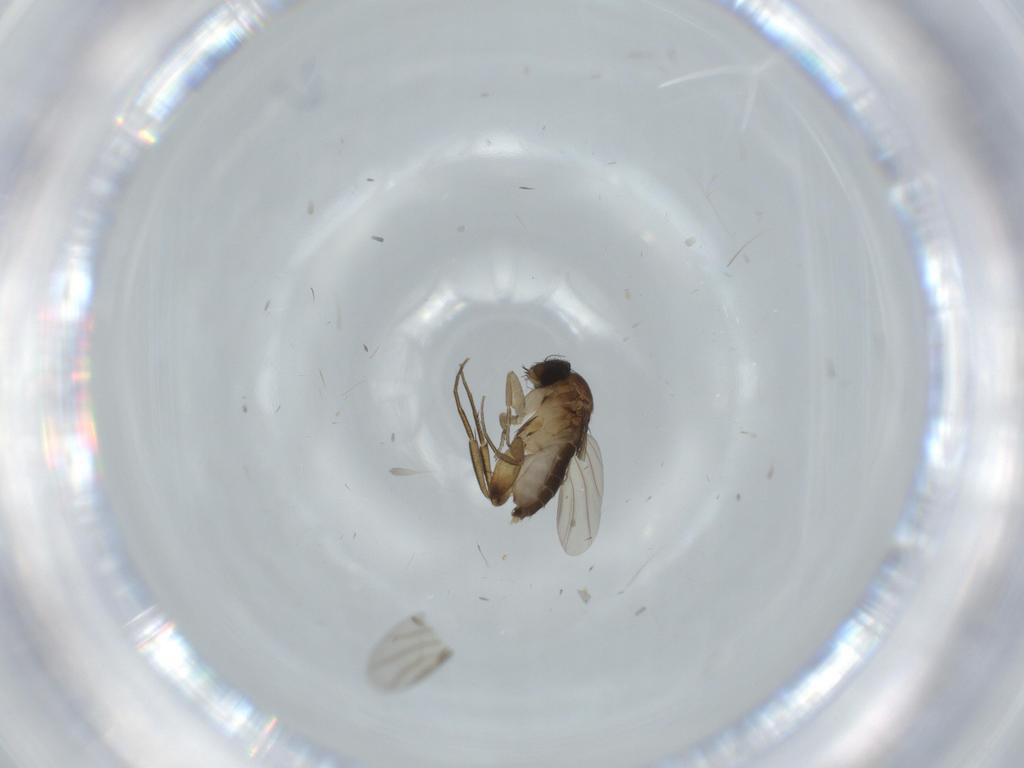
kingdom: Animalia
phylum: Arthropoda
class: Insecta
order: Diptera
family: Phoridae
